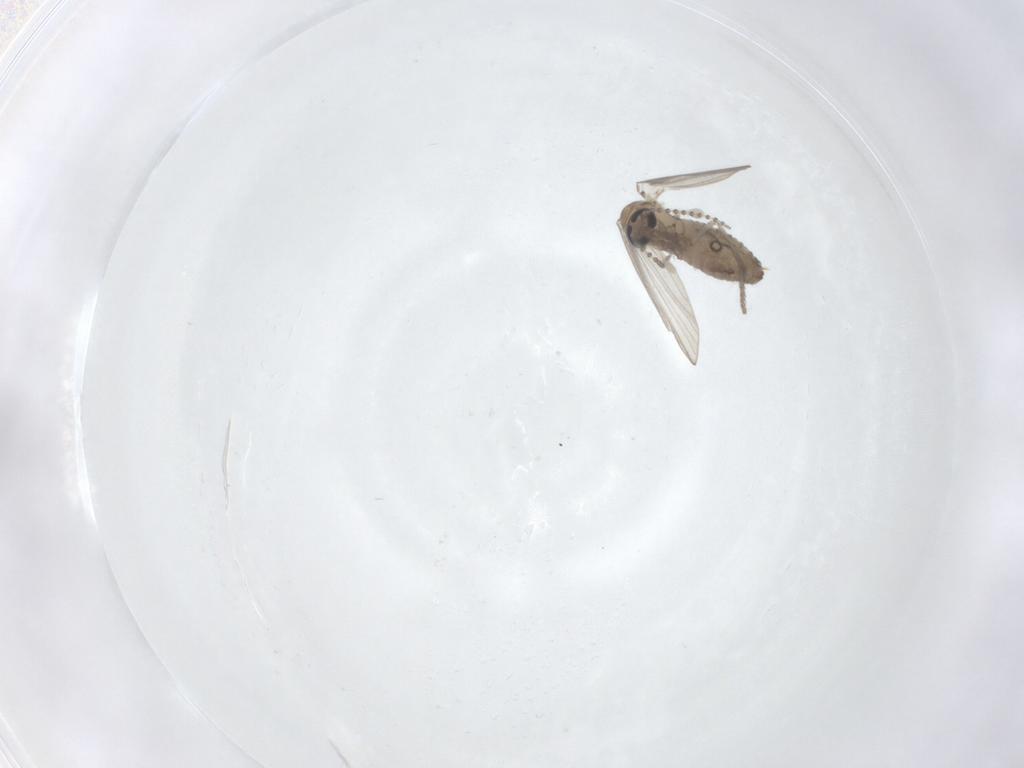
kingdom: Animalia
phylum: Arthropoda
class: Insecta
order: Diptera
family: Psychodidae
